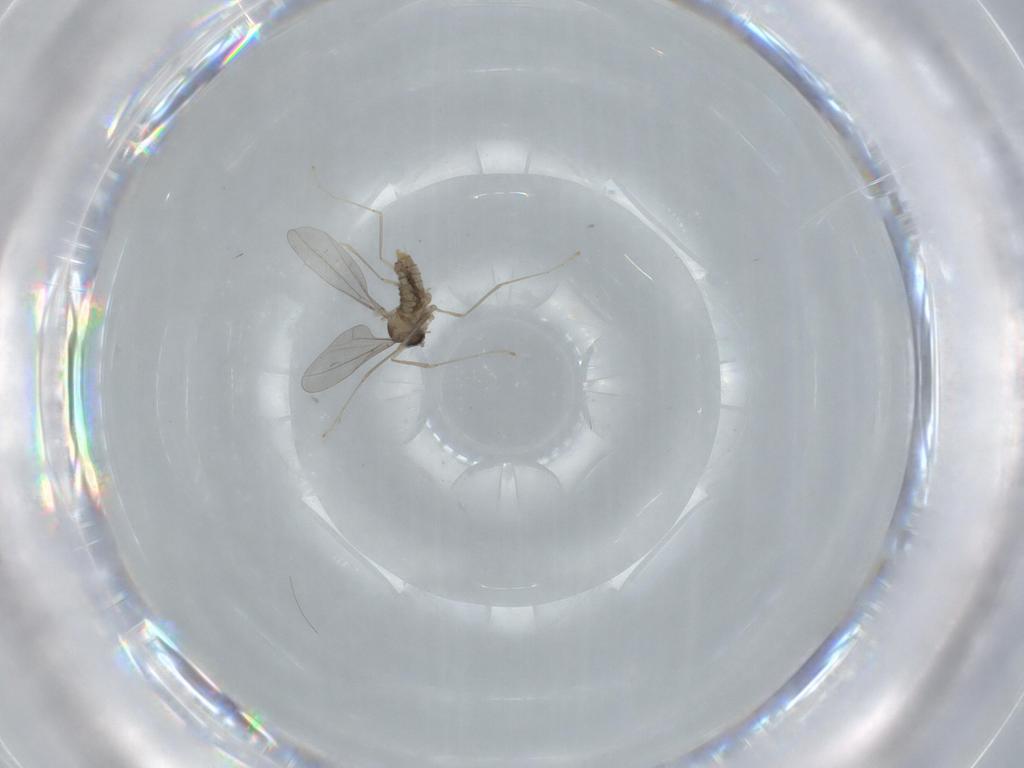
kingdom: Animalia
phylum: Arthropoda
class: Insecta
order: Diptera
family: Cecidomyiidae
